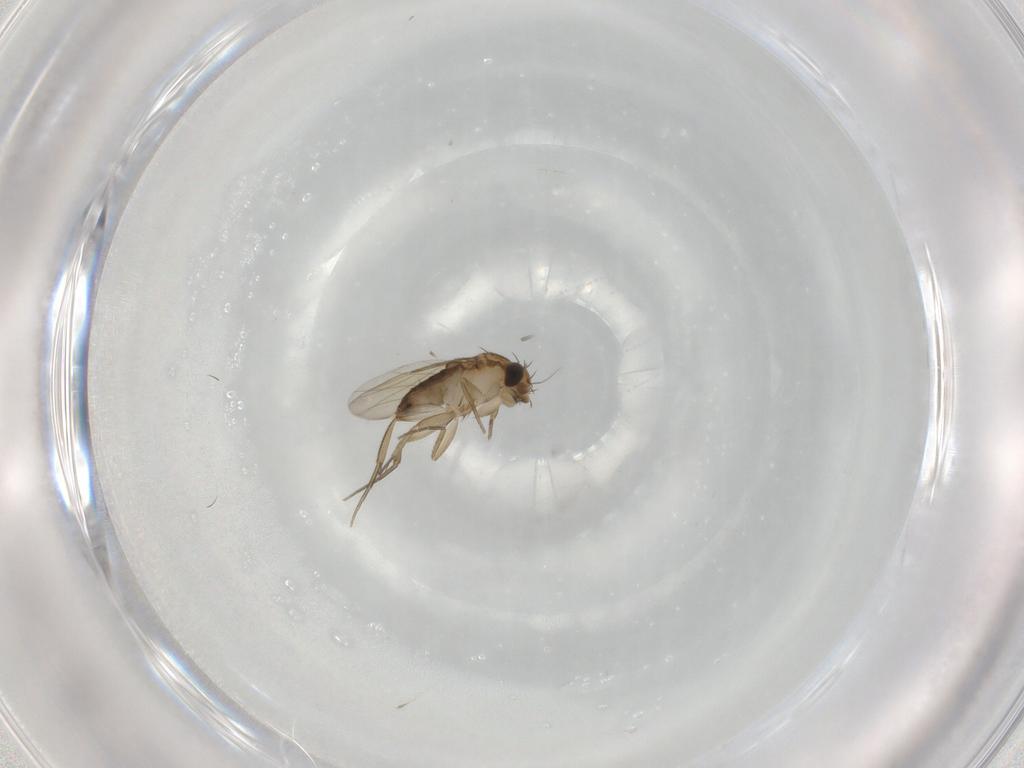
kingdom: Animalia
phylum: Arthropoda
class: Insecta
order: Diptera
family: Phoridae
